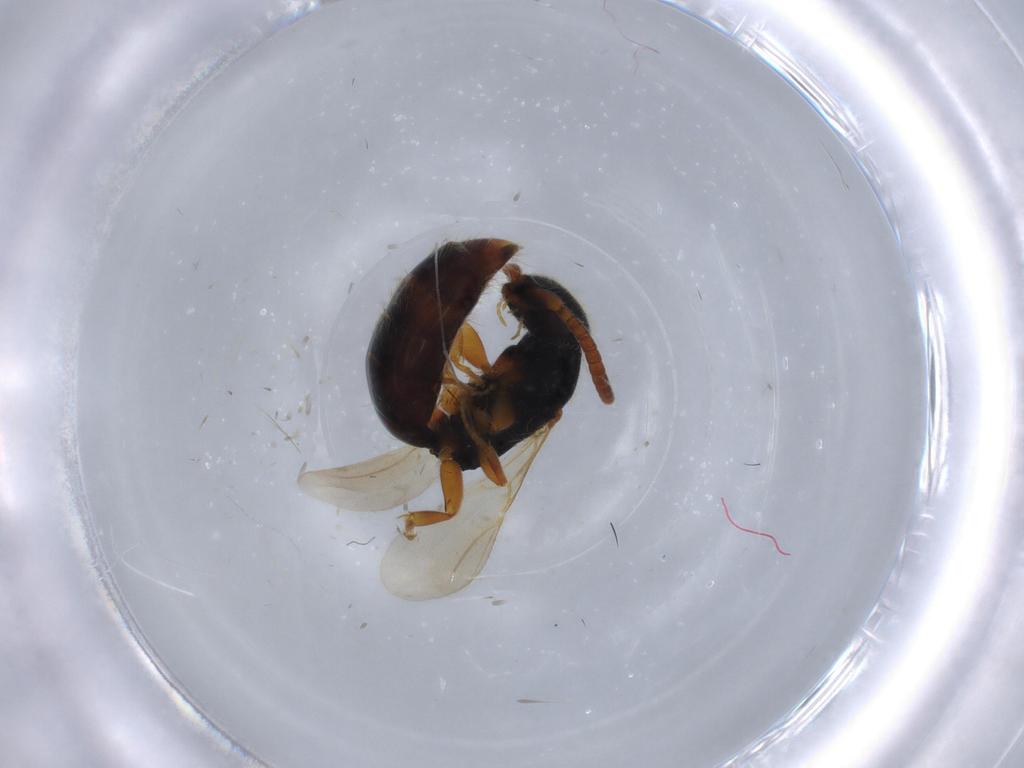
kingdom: Animalia
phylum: Arthropoda
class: Insecta
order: Hymenoptera
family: Bethylidae
